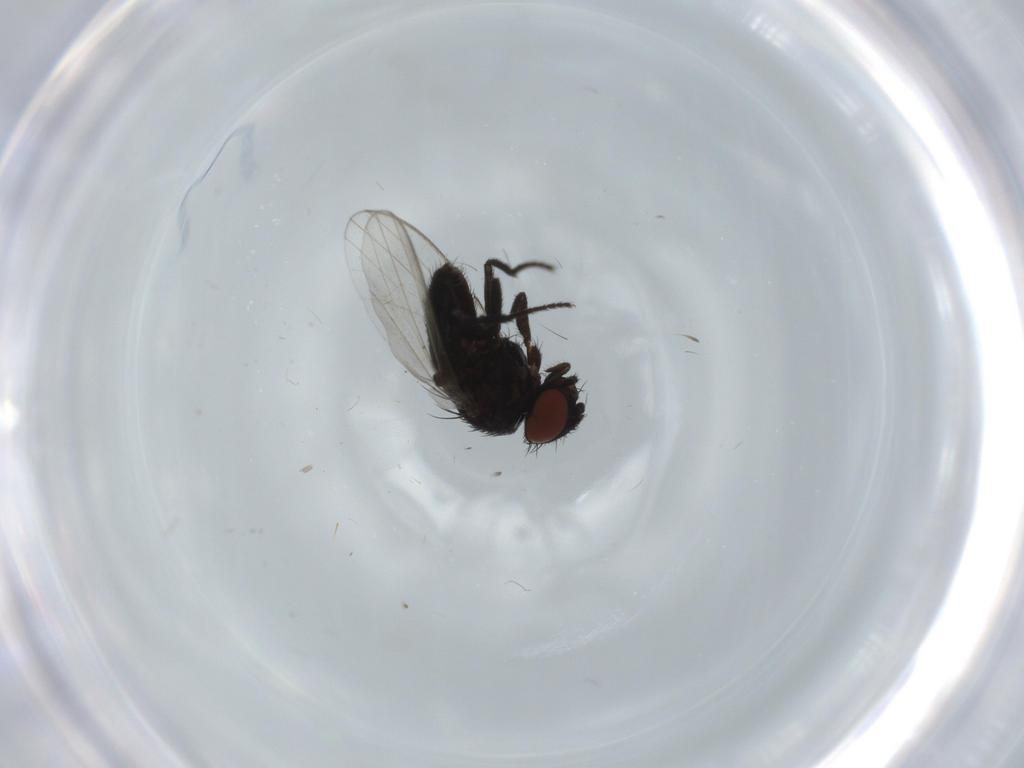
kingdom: Animalia
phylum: Arthropoda
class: Insecta
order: Diptera
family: Milichiidae
